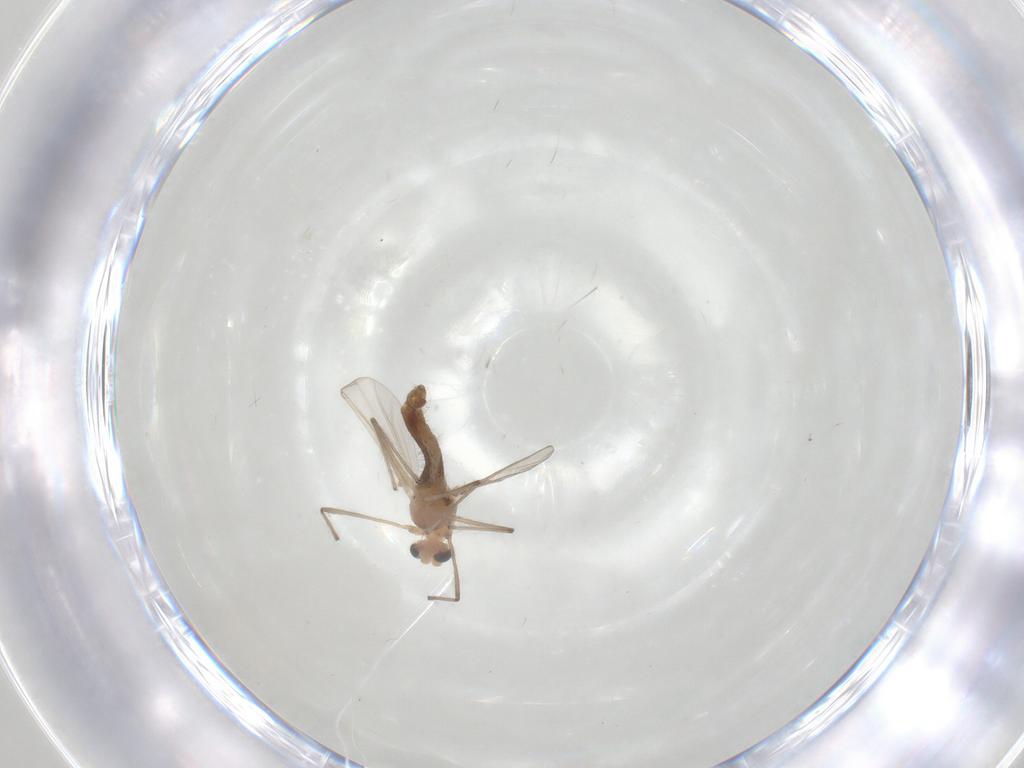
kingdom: Animalia
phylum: Arthropoda
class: Insecta
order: Diptera
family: Chironomidae
